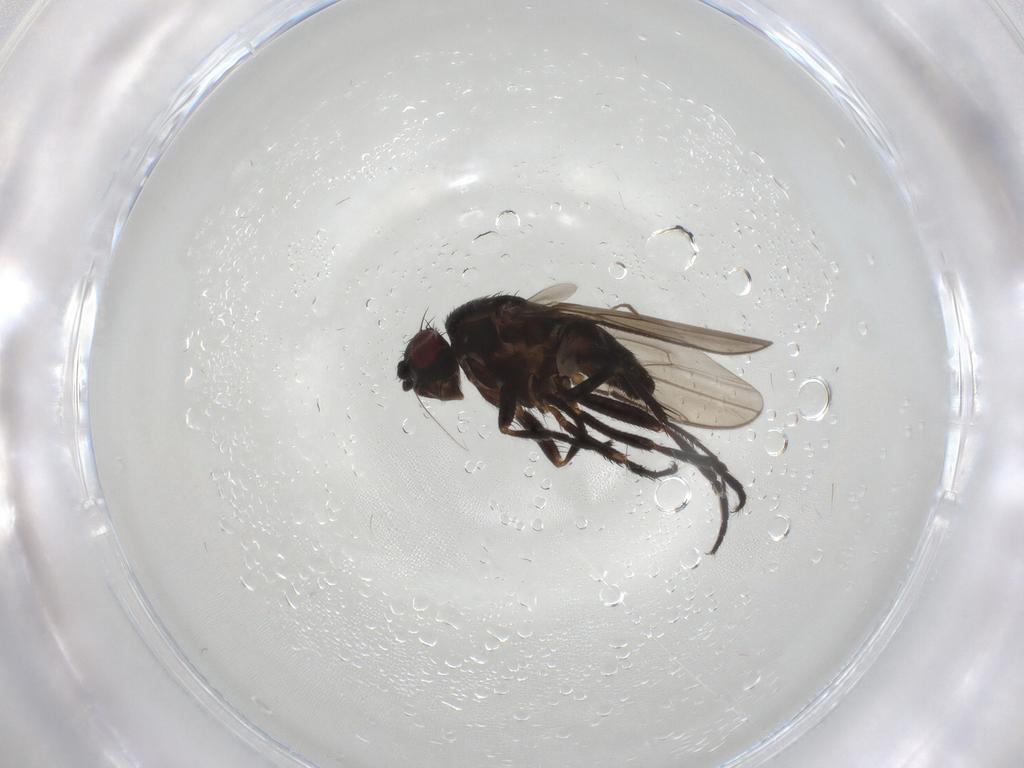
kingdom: Animalia
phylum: Arthropoda
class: Insecta
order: Diptera
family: Sphaeroceridae
